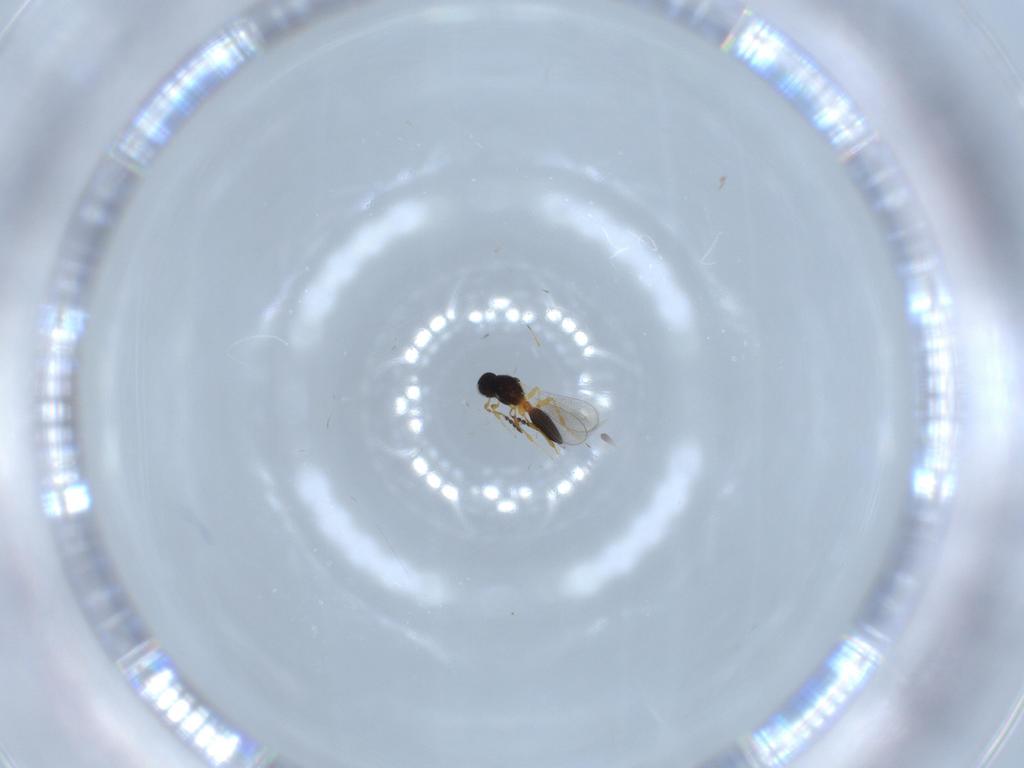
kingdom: Animalia
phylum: Arthropoda
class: Insecta
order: Hymenoptera
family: Platygastridae
